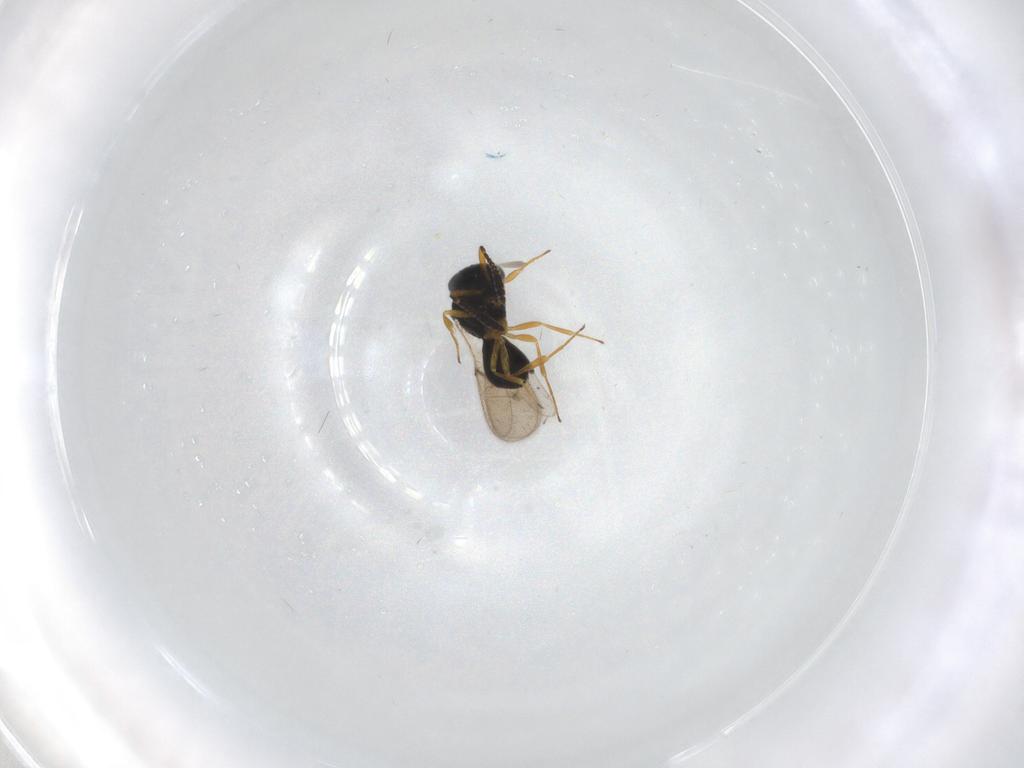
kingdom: Animalia
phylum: Arthropoda
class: Insecta
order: Hymenoptera
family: Scelionidae
